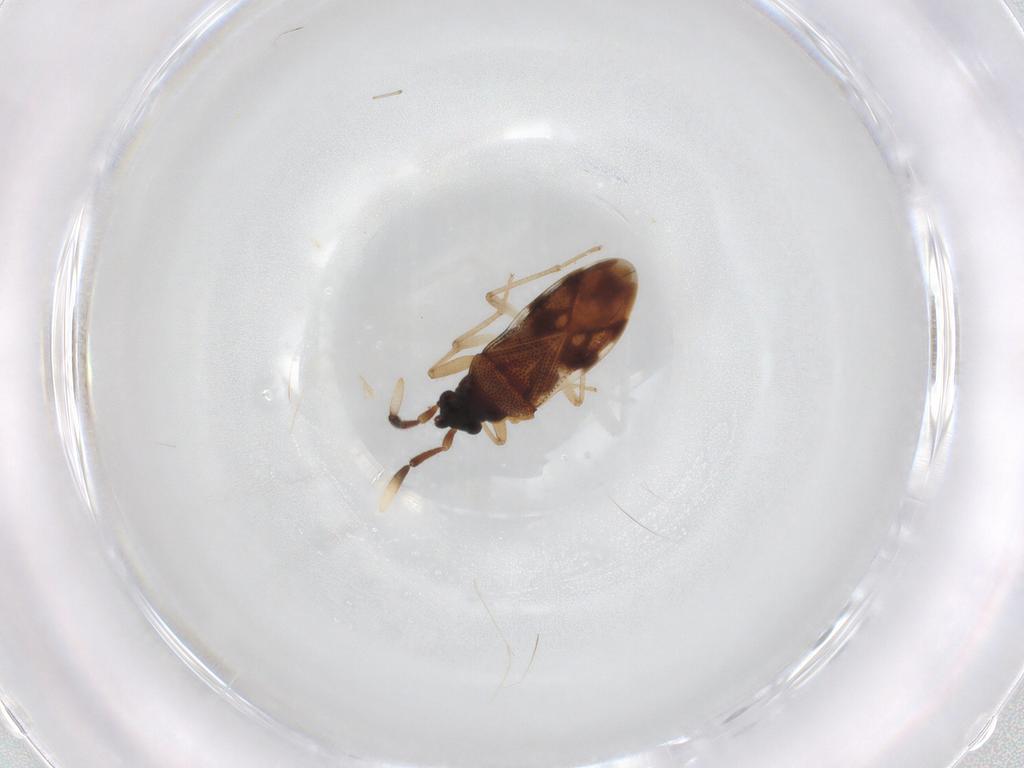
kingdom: Animalia
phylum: Arthropoda
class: Insecta
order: Hemiptera
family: Lygaeidae
